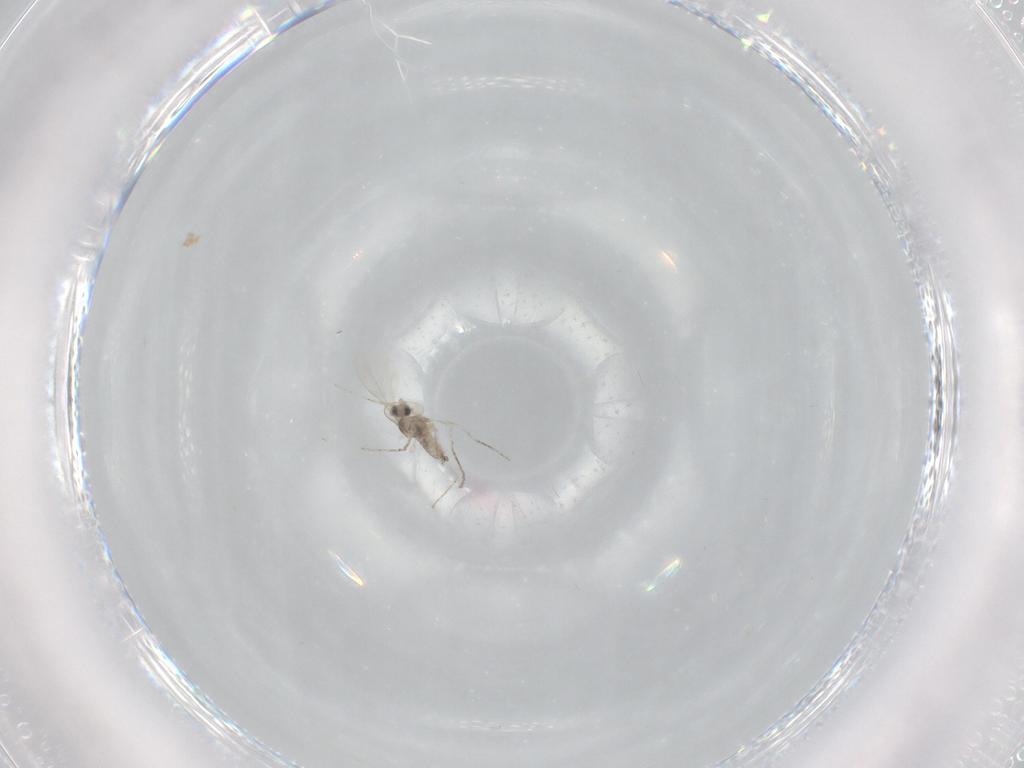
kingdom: Animalia
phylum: Arthropoda
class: Insecta
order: Diptera
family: Cecidomyiidae
